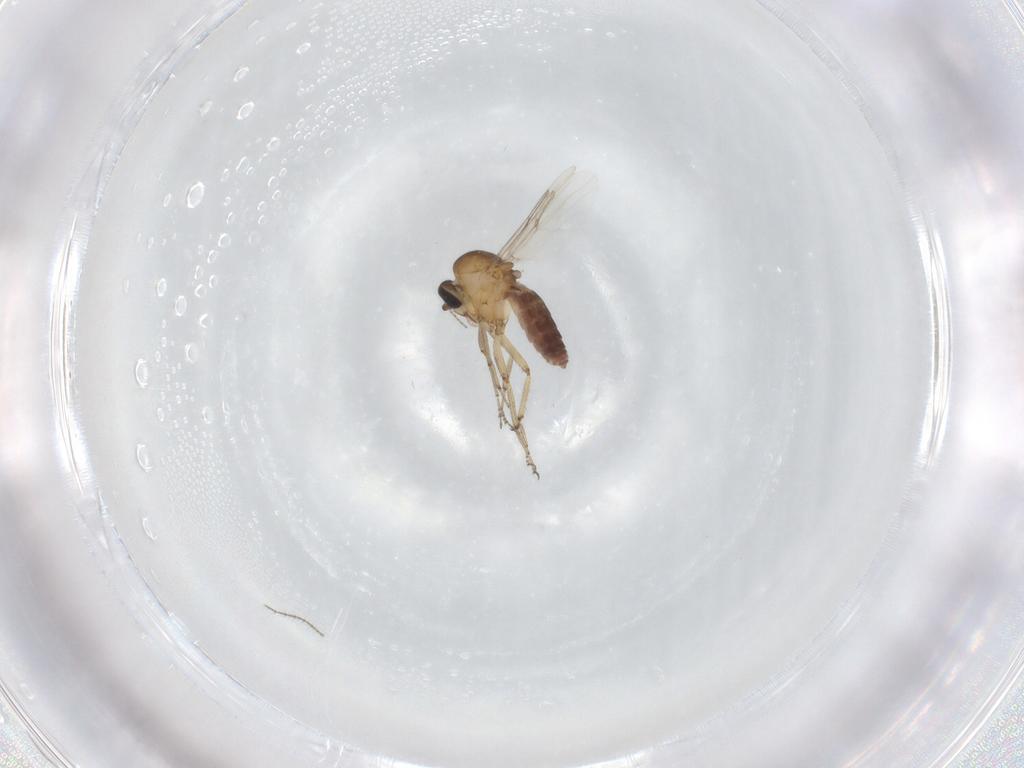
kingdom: Animalia
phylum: Arthropoda
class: Insecta
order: Diptera
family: Ceratopogonidae
